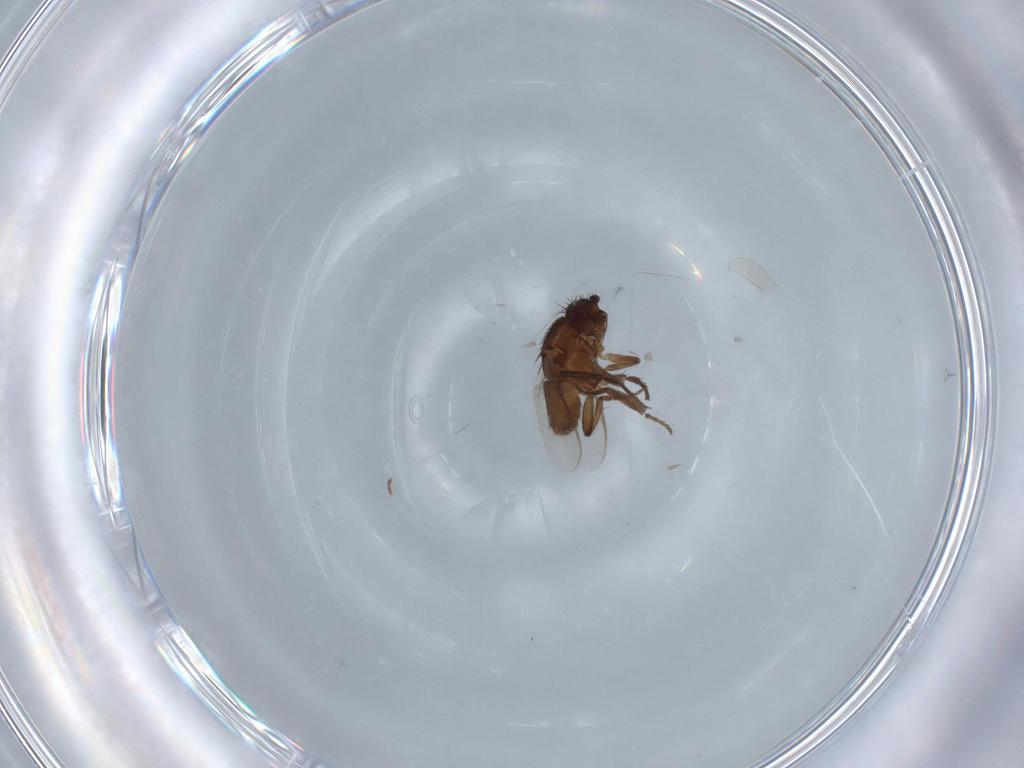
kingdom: Animalia
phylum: Arthropoda
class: Insecta
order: Diptera
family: Sphaeroceridae
